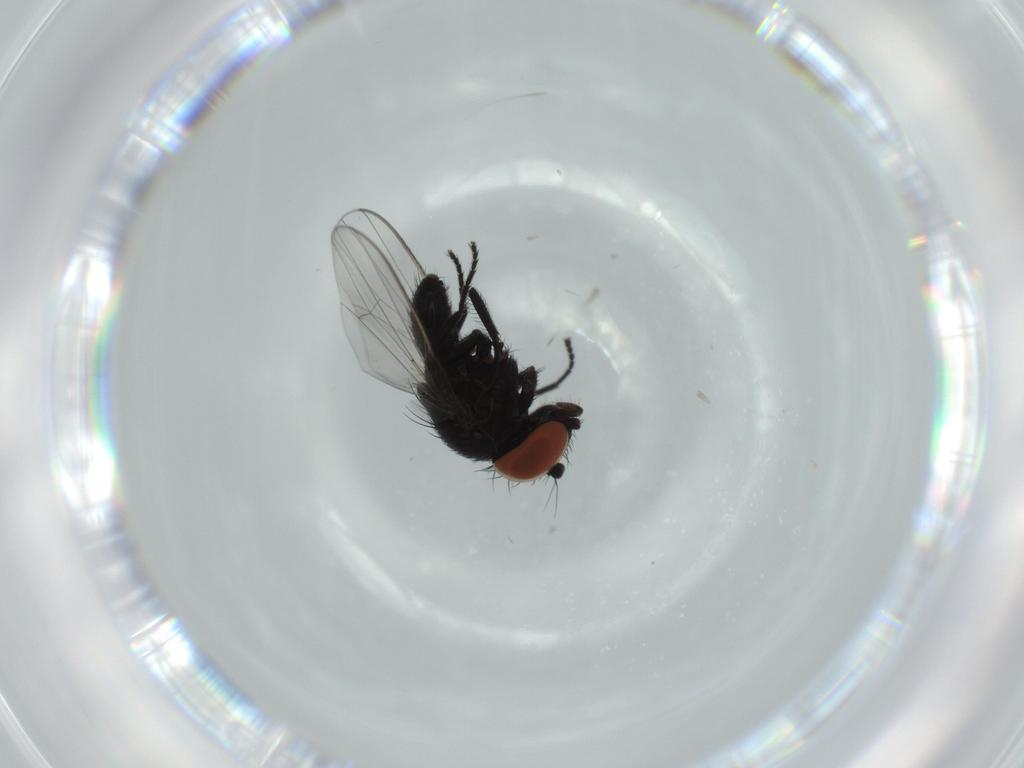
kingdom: Animalia
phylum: Arthropoda
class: Insecta
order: Diptera
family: Milichiidae
